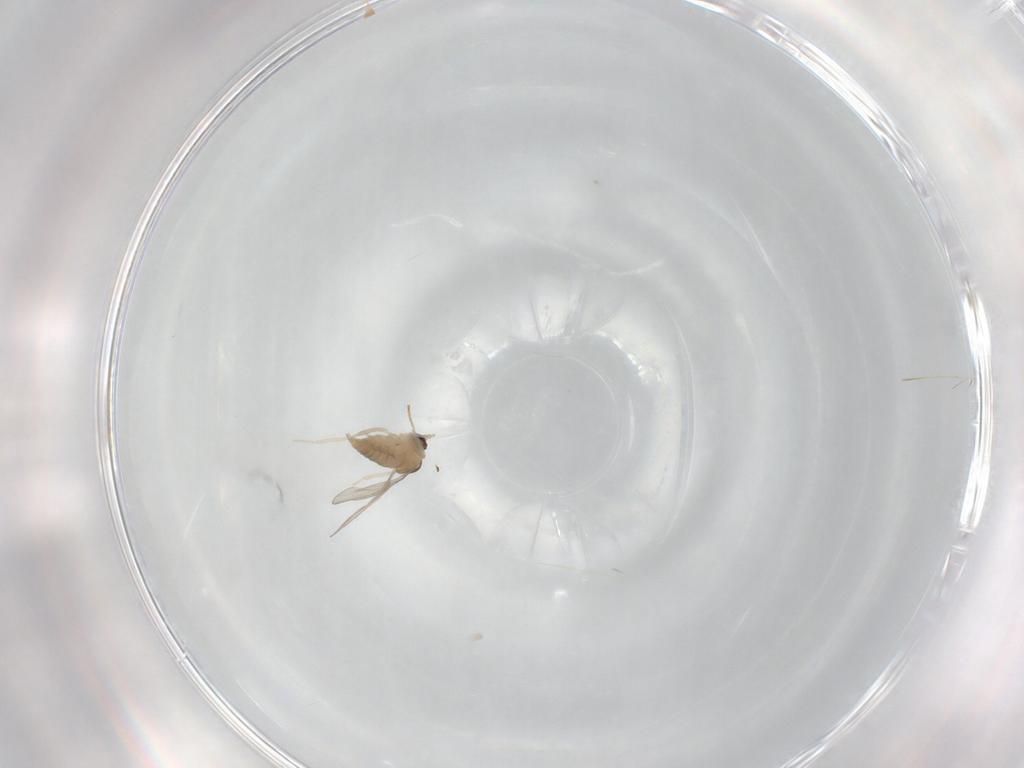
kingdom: Animalia
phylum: Arthropoda
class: Insecta
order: Diptera
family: Cecidomyiidae
